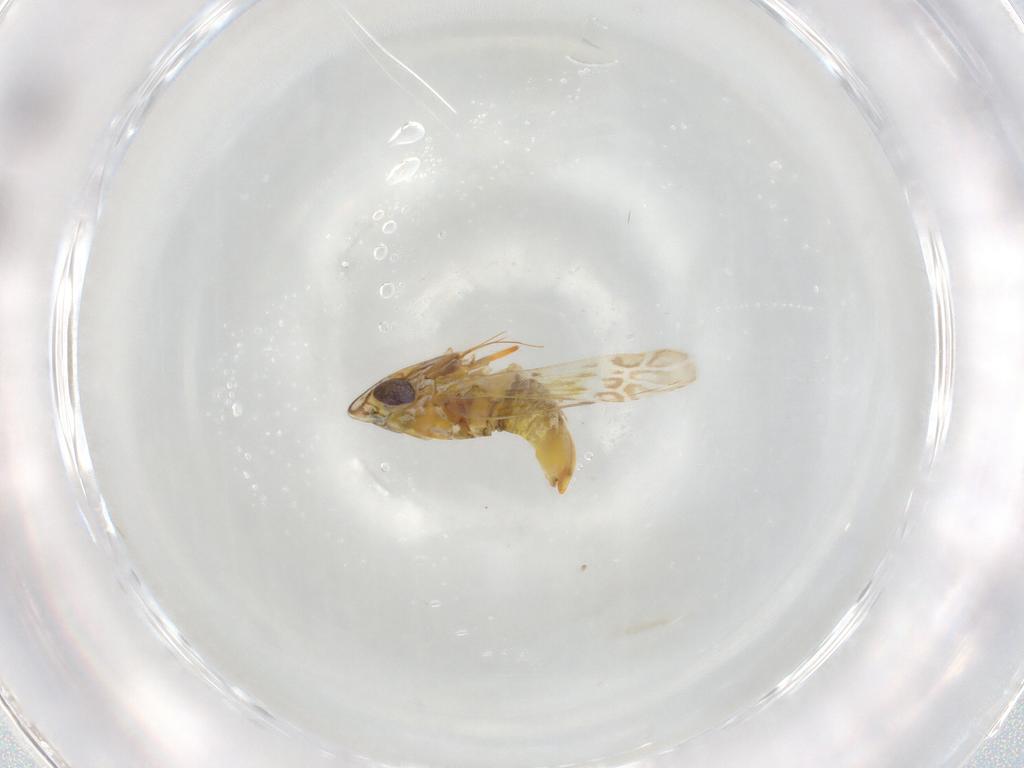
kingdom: Animalia
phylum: Arthropoda
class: Insecta
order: Hemiptera
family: Cicadellidae
